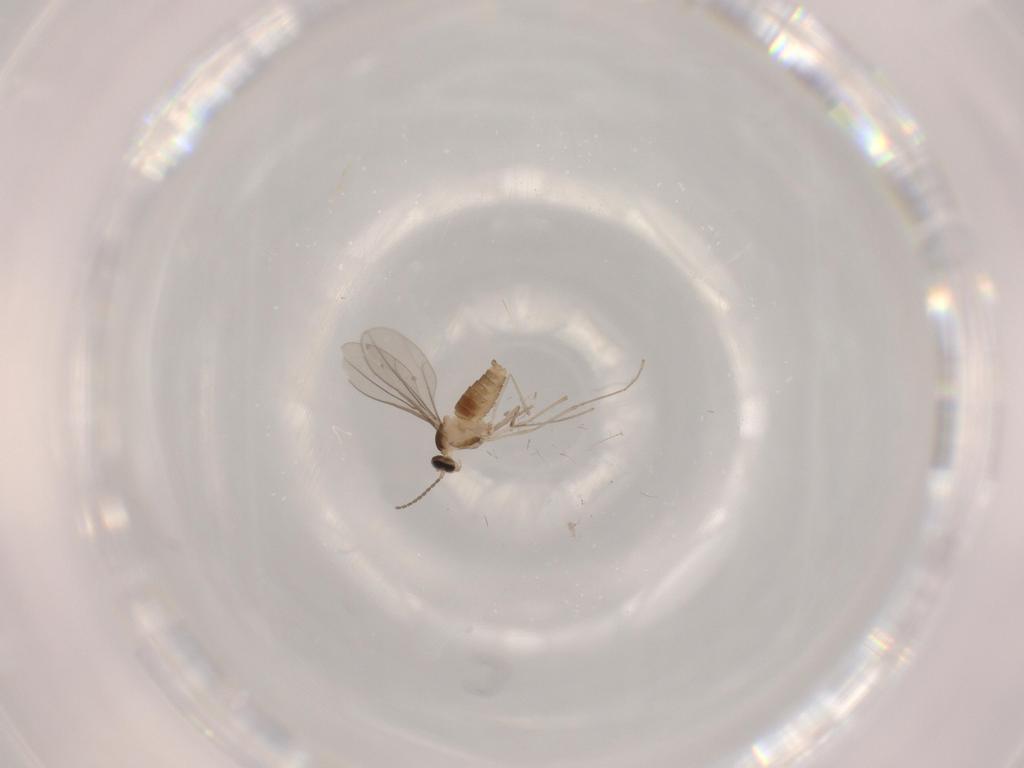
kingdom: Animalia
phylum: Arthropoda
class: Insecta
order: Diptera
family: Cecidomyiidae
